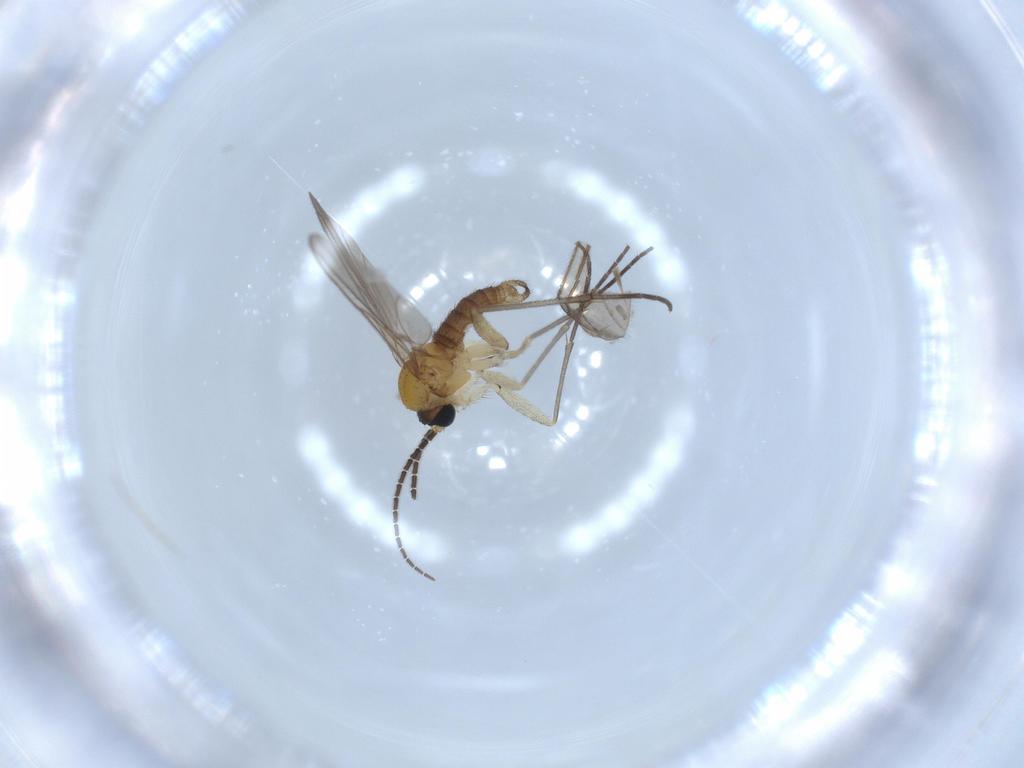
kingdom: Animalia
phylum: Arthropoda
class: Insecta
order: Diptera
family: Sciaridae
